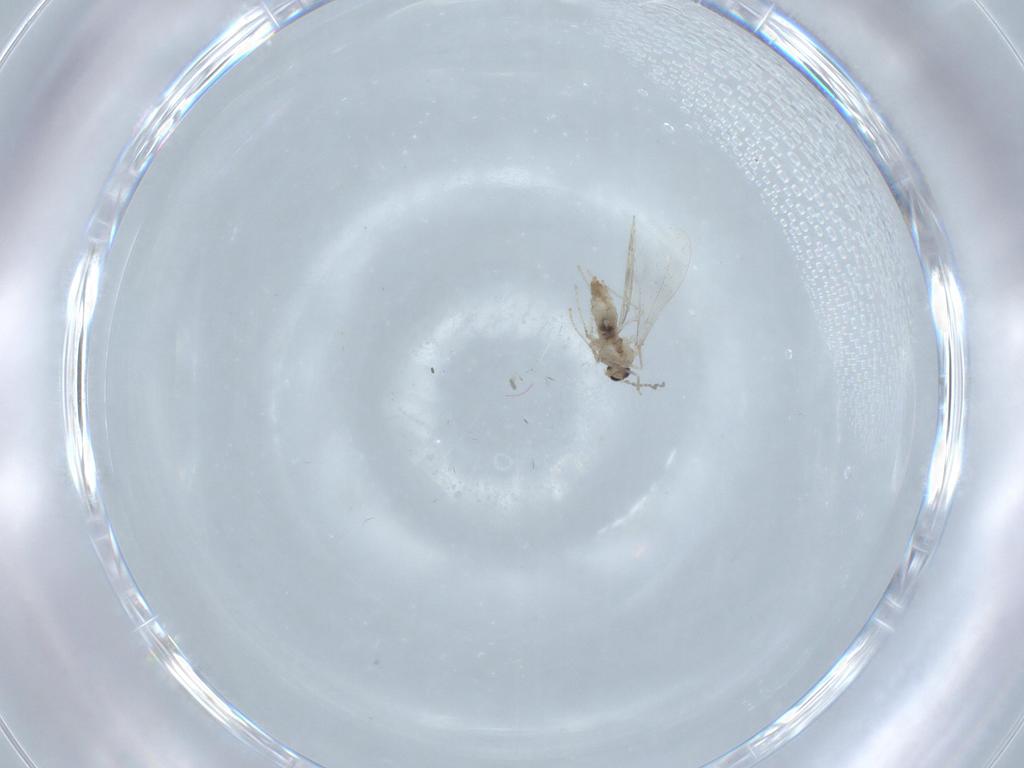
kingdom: Animalia
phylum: Arthropoda
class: Insecta
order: Diptera
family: Cecidomyiidae
